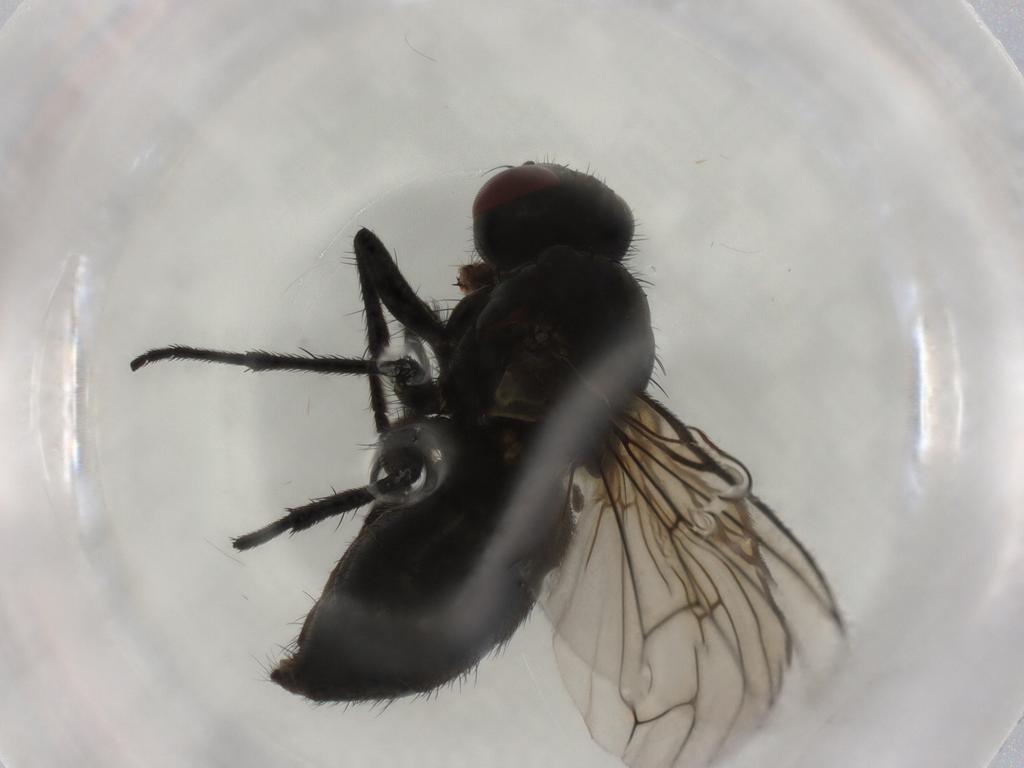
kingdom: Animalia
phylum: Arthropoda
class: Insecta
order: Diptera
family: Muscidae
